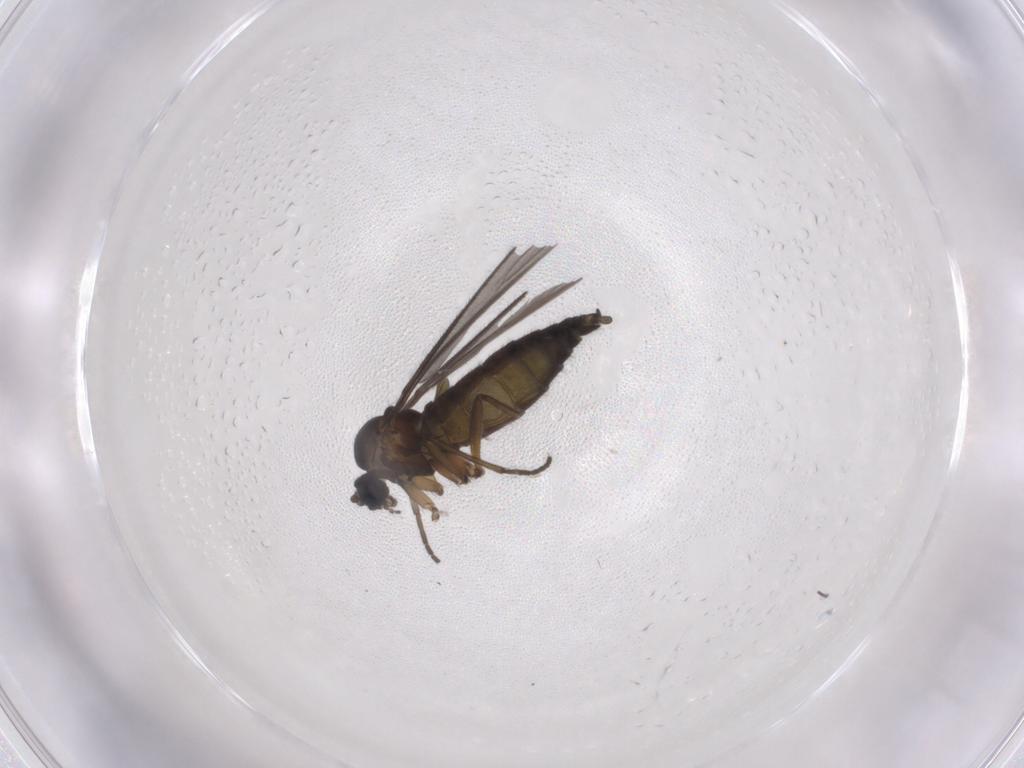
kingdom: Animalia
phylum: Arthropoda
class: Insecta
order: Diptera
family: Sciaridae
